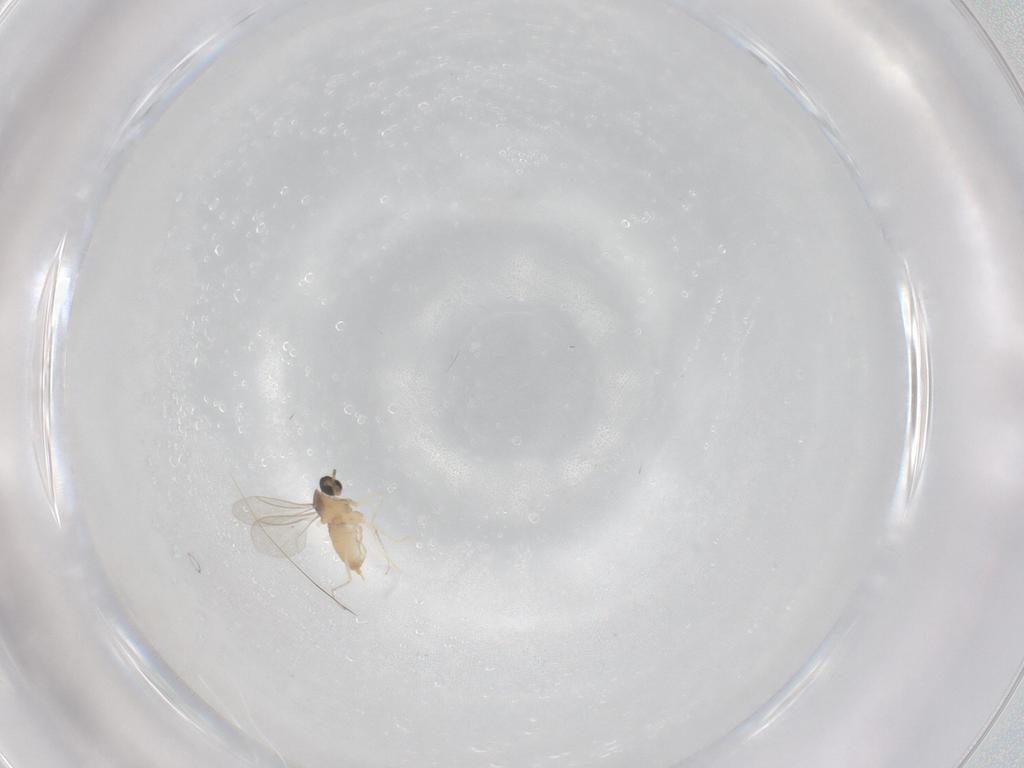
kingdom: Animalia
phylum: Arthropoda
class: Insecta
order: Diptera
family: Cecidomyiidae
